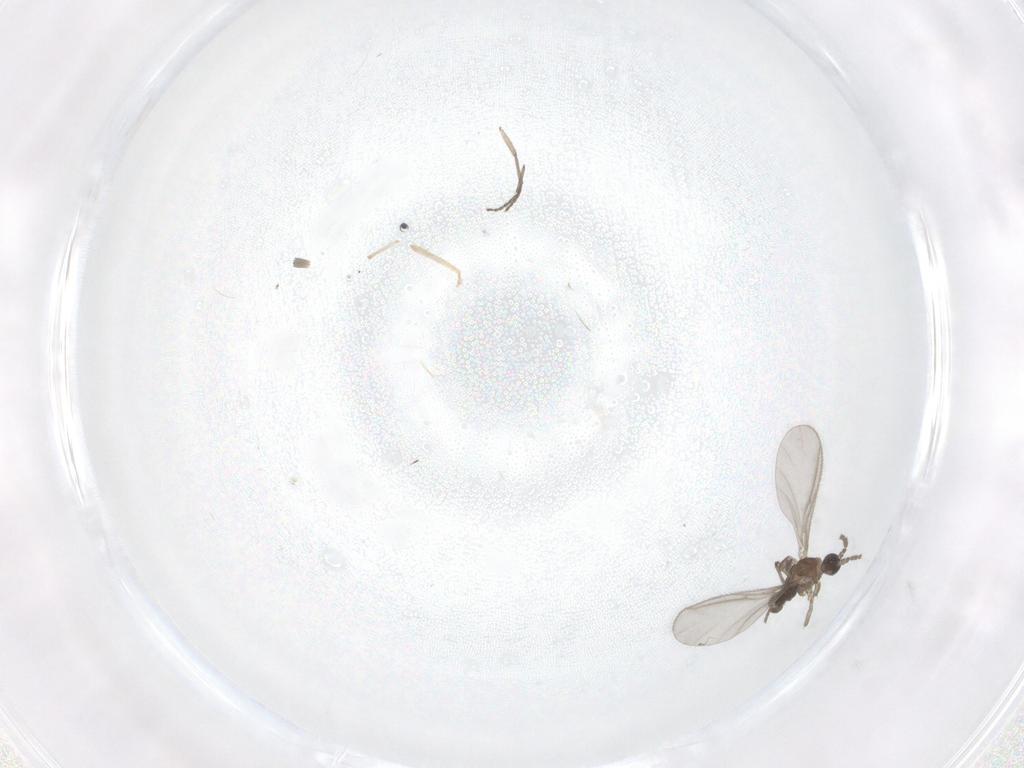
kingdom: Animalia
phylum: Arthropoda
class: Insecta
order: Diptera
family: Sciaridae
